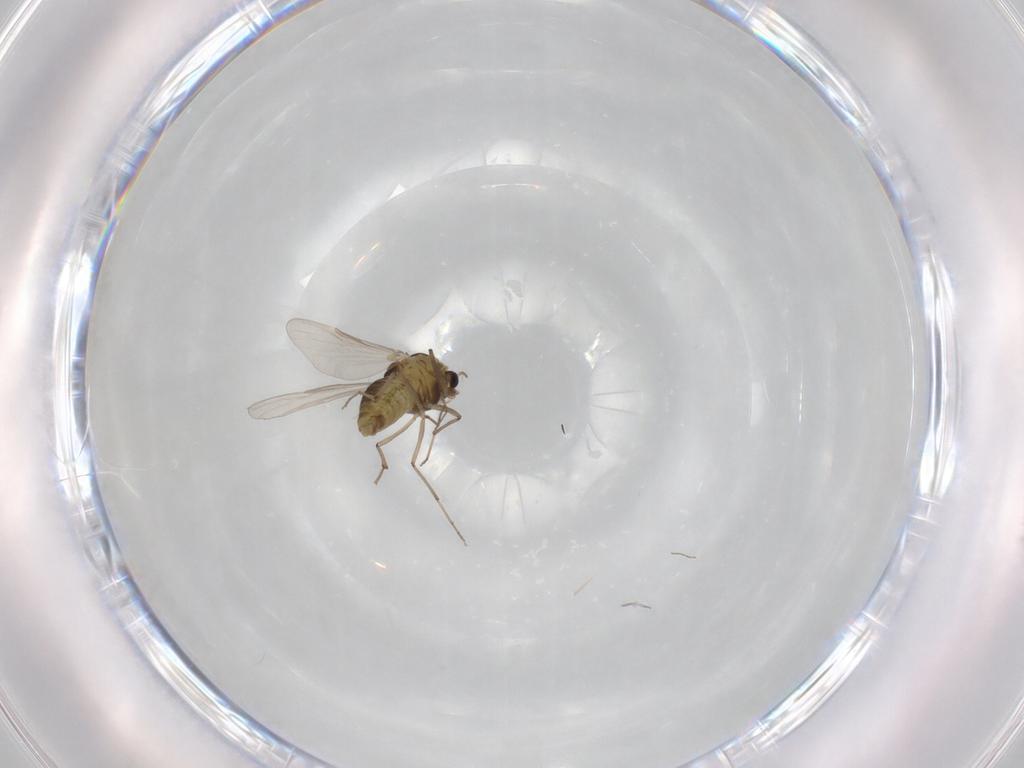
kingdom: Animalia
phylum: Arthropoda
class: Insecta
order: Diptera
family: Chironomidae
